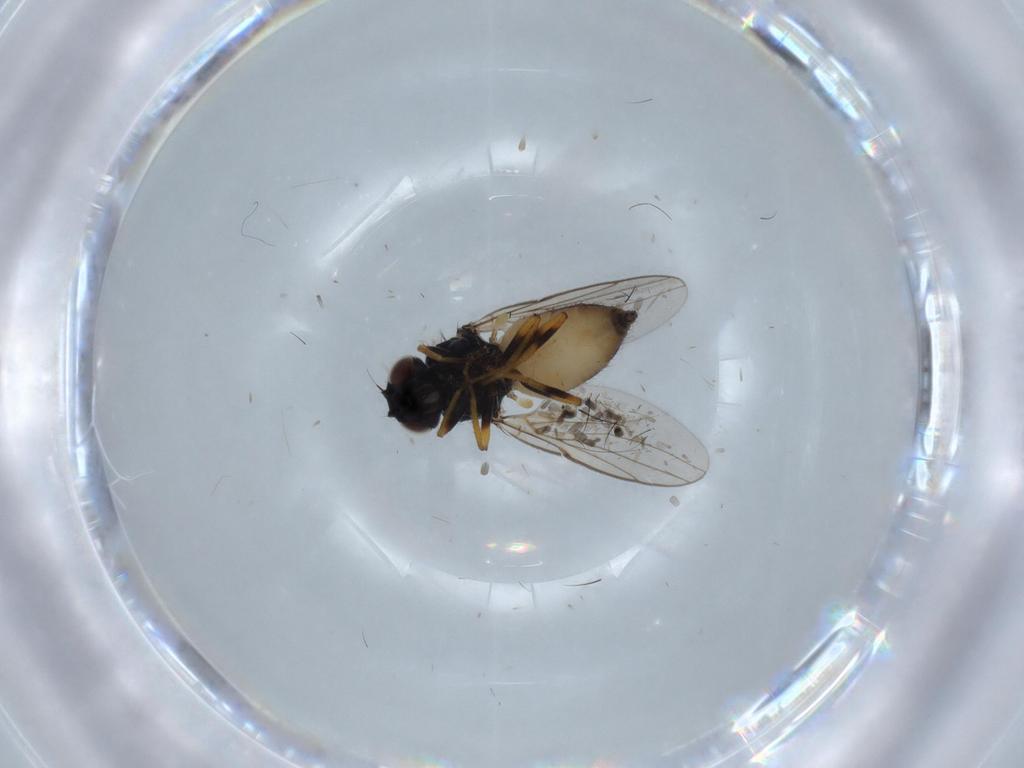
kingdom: Animalia
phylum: Arthropoda
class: Insecta
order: Diptera
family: Chloropidae
